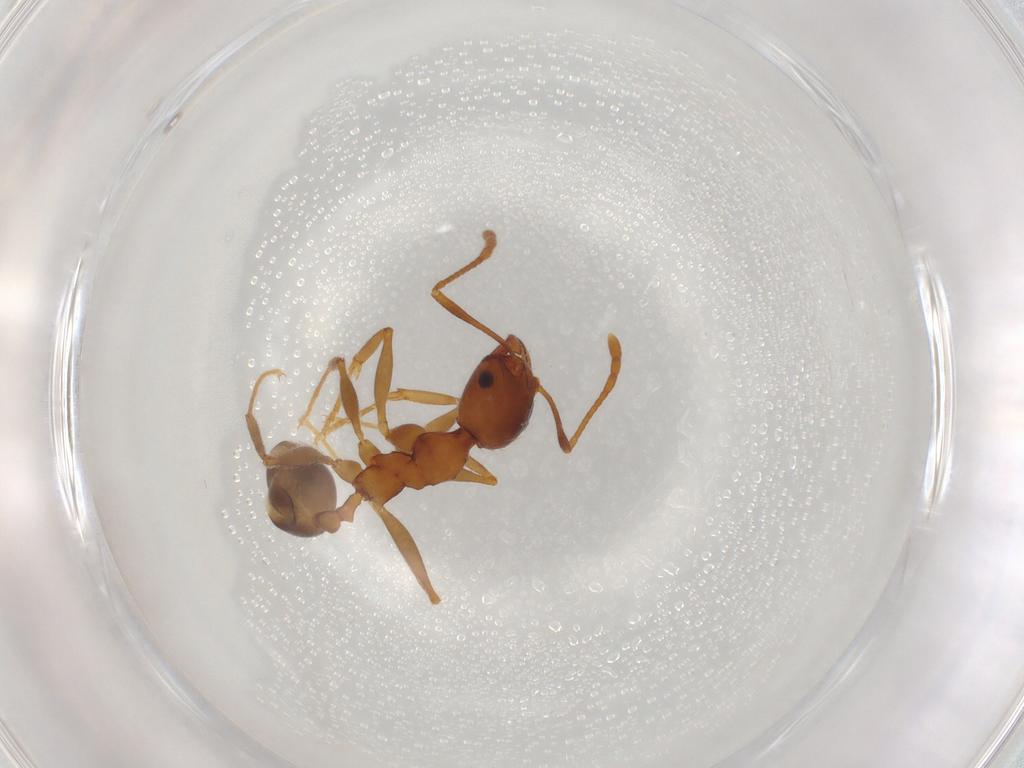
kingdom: Animalia
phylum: Arthropoda
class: Insecta
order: Hymenoptera
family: Formicidae
